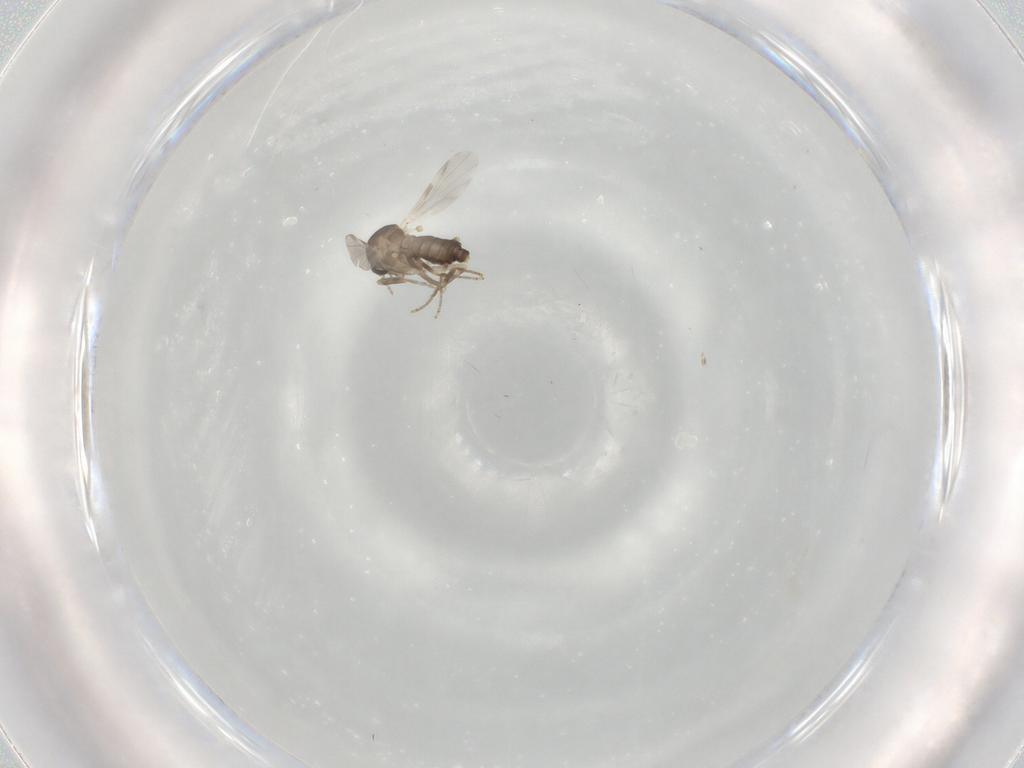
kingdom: Animalia
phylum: Arthropoda
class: Insecta
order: Diptera
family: Ceratopogonidae
